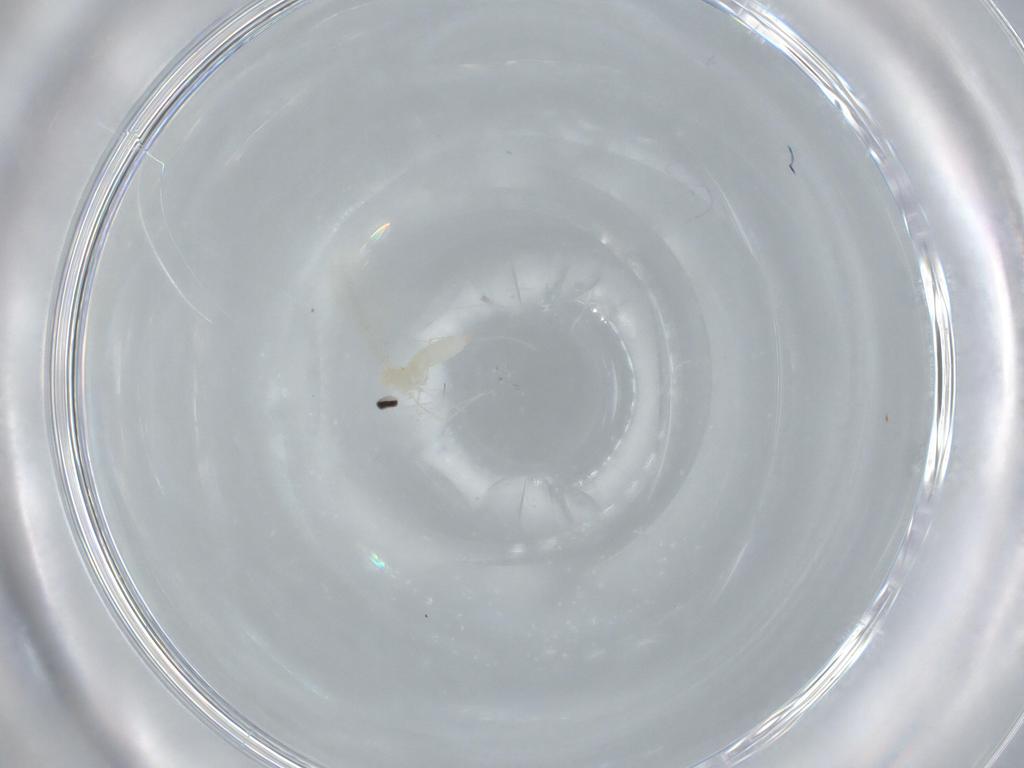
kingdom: Animalia
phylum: Arthropoda
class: Insecta
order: Diptera
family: Cecidomyiidae
